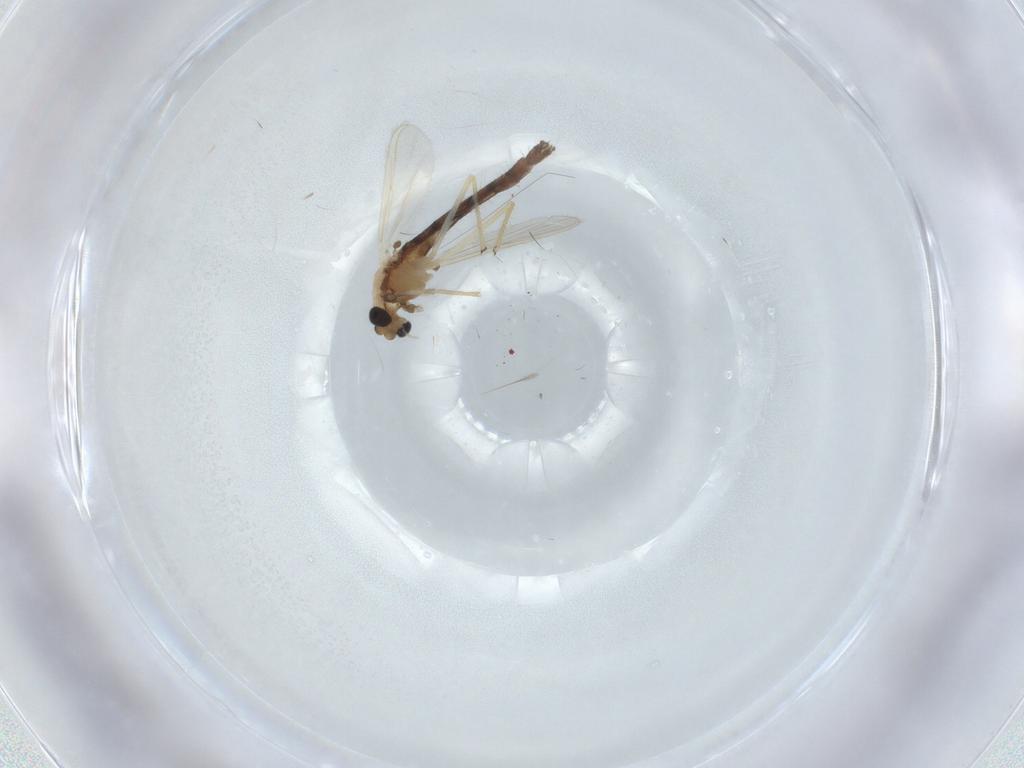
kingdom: Animalia
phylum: Arthropoda
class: Insecta
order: Diptera
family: Chironomidae
